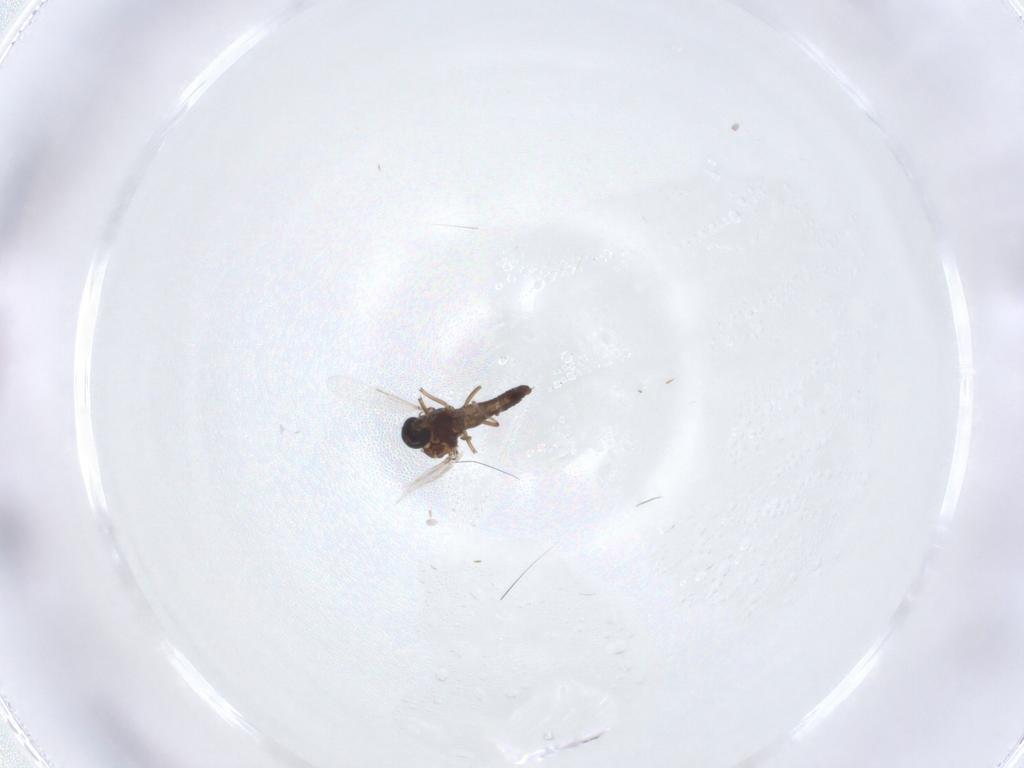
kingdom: Animalia
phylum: Arthropoda
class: Insecta
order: Diptera
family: Ceratopogonidae
